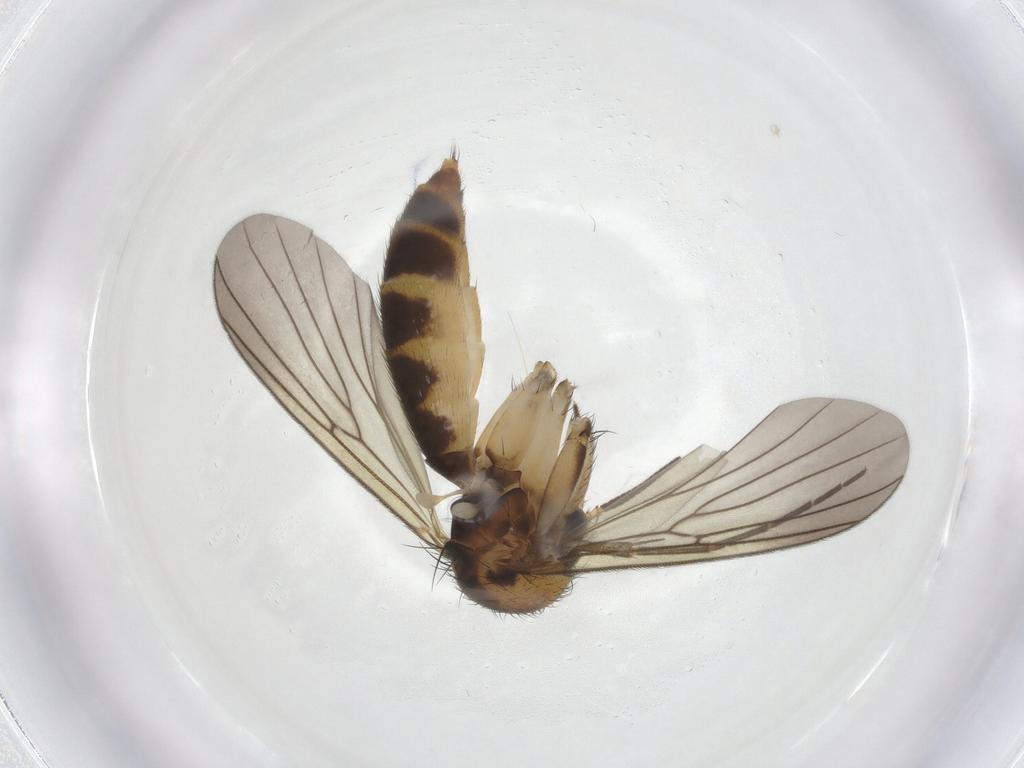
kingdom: Animalia
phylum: Arthropoda
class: Insecta
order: Diptera
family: Mycetophilidae
